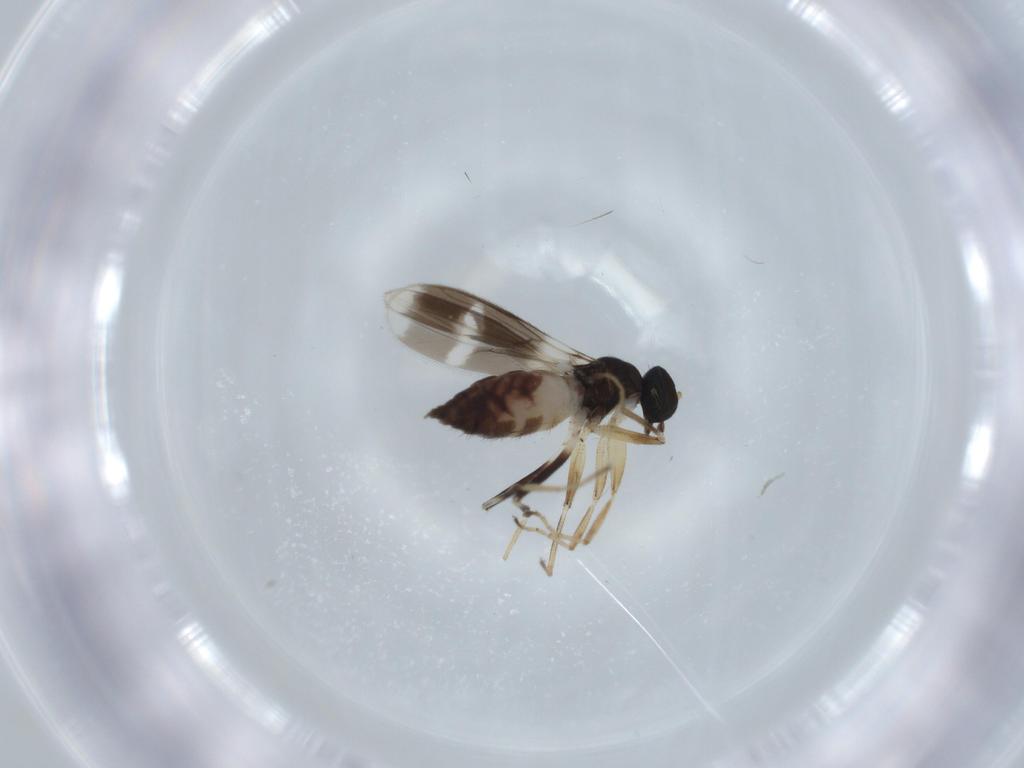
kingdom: Animalia
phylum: Arthropoda
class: Insecta
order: Diptera
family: Hybotidae
